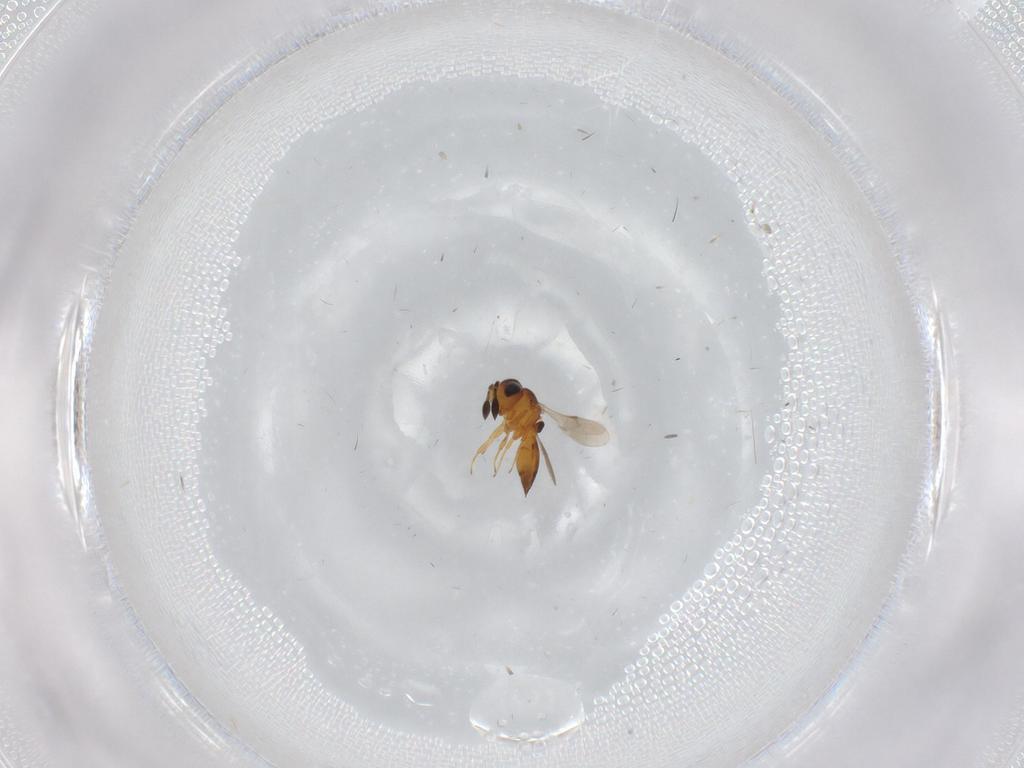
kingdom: Animalia
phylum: Arthropoda
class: Insecta
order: Hymenoptera
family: Scelionidae
